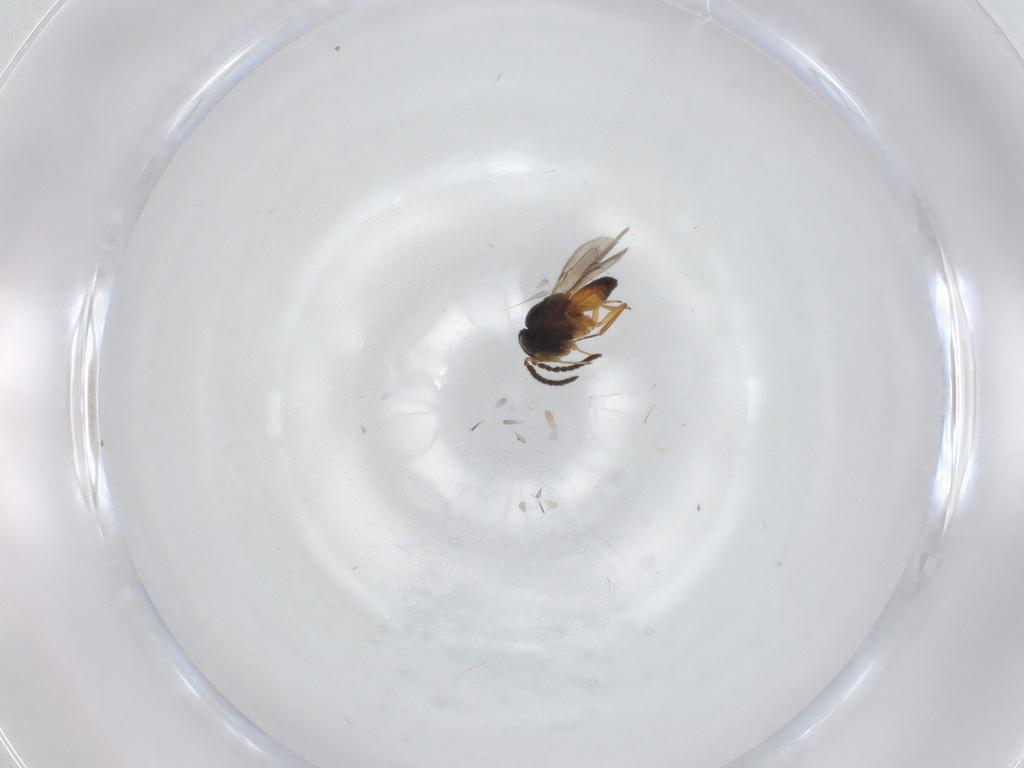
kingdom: Animalia
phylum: Arthropoda
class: Insecta
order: Hymenoptera
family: Scelionidae
